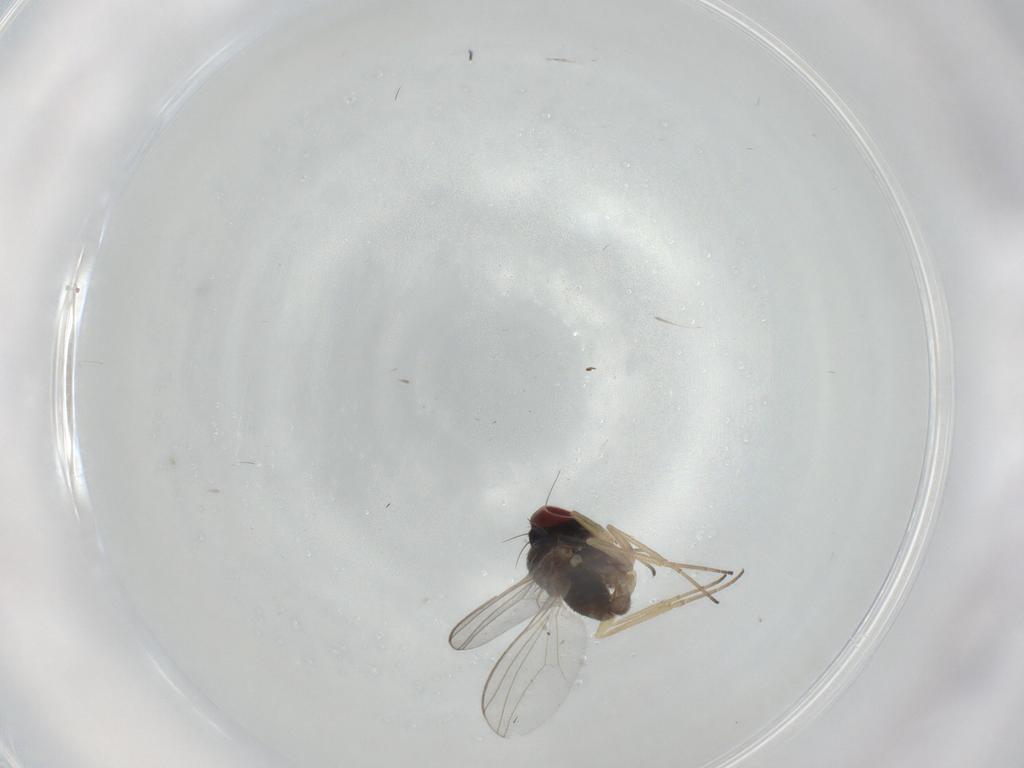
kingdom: Animalia
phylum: Arthropoda
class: Insecta
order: Diptera
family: Dolichopodidae
